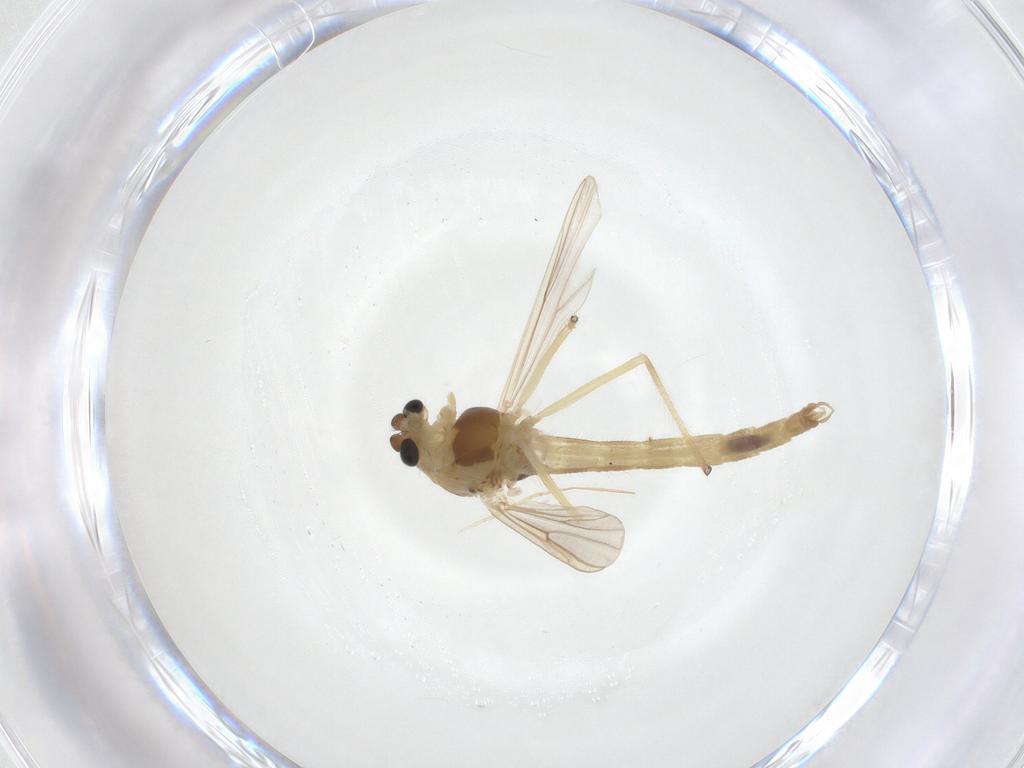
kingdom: Animalia
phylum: Arthropoda
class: Insecta
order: Diptera
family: Chironomidae
